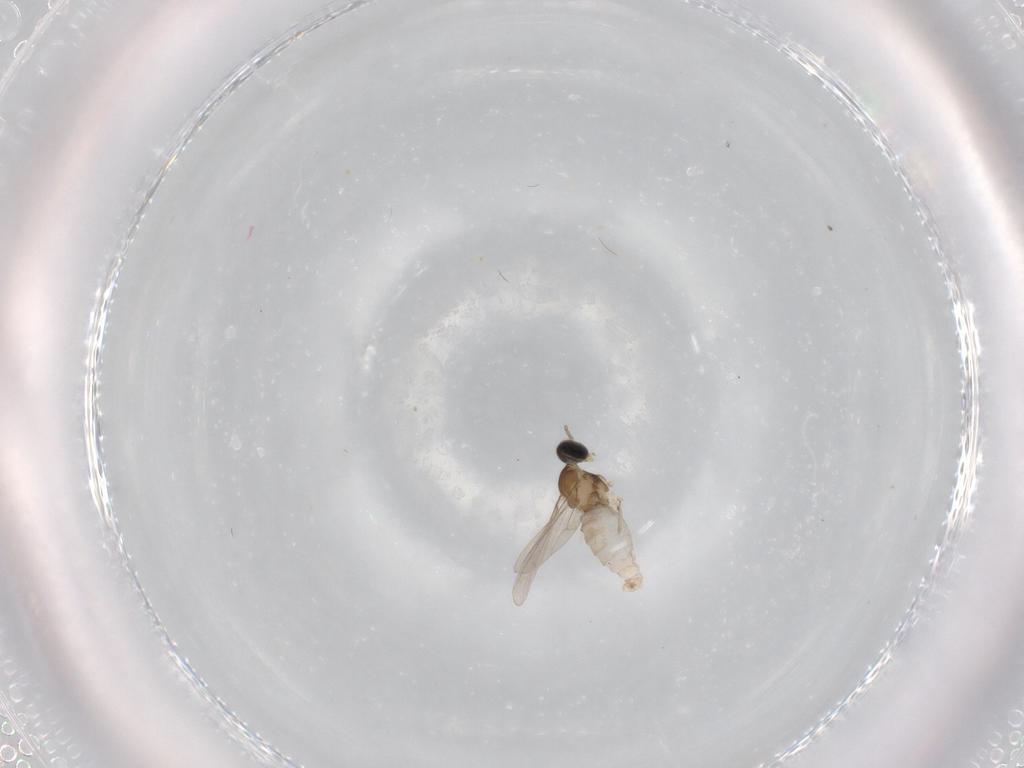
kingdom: Animalia
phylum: Arthropoda
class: Insecta
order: Diptera
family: Cecidomyiidae
